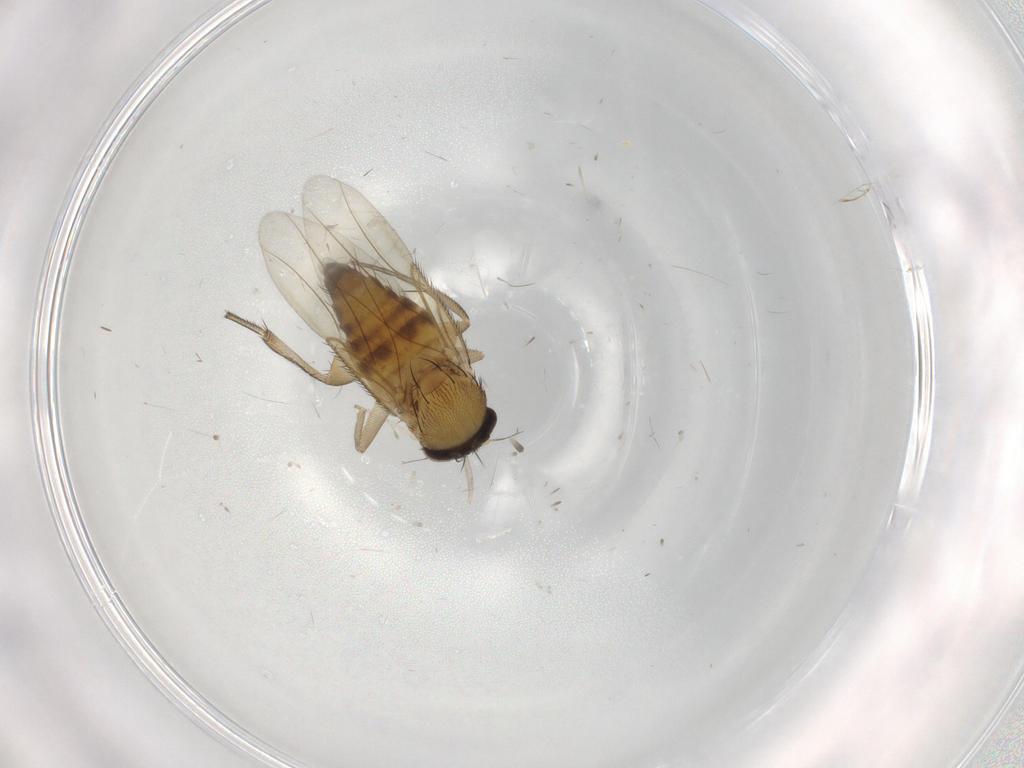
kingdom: Animalia
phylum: Arthropoda
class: Insecta
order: Diptera
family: Phoridae
